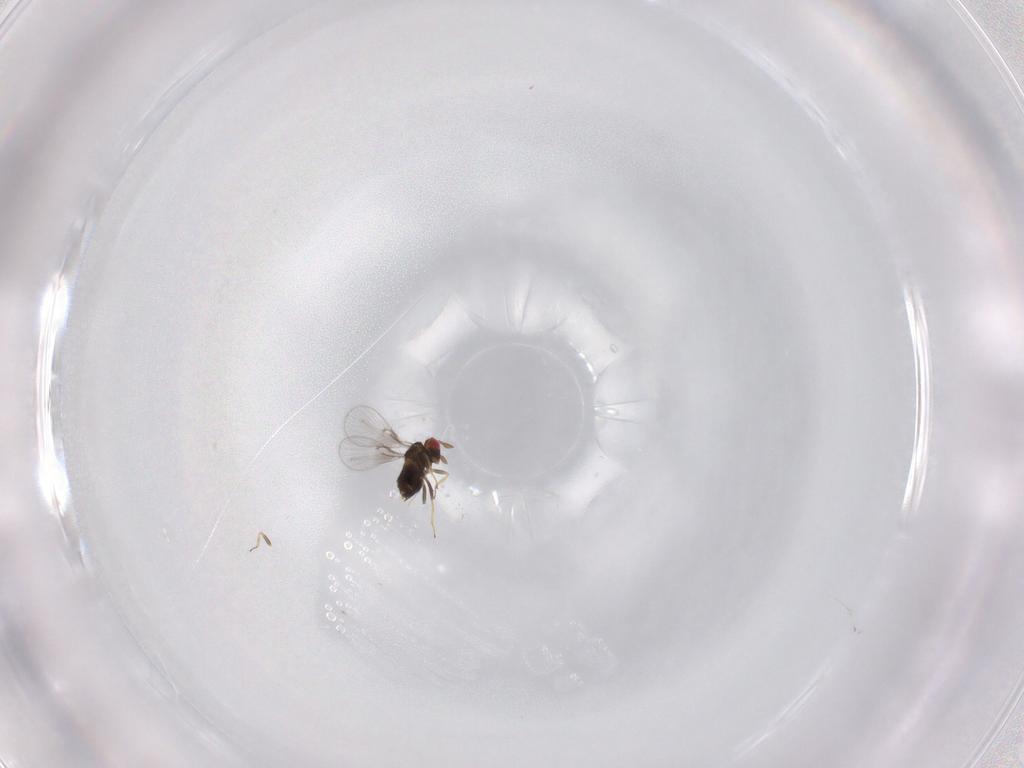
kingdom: Animalia
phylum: Arthropoda
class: Insecta
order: Hymenoptera
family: Trichogrammatidae
